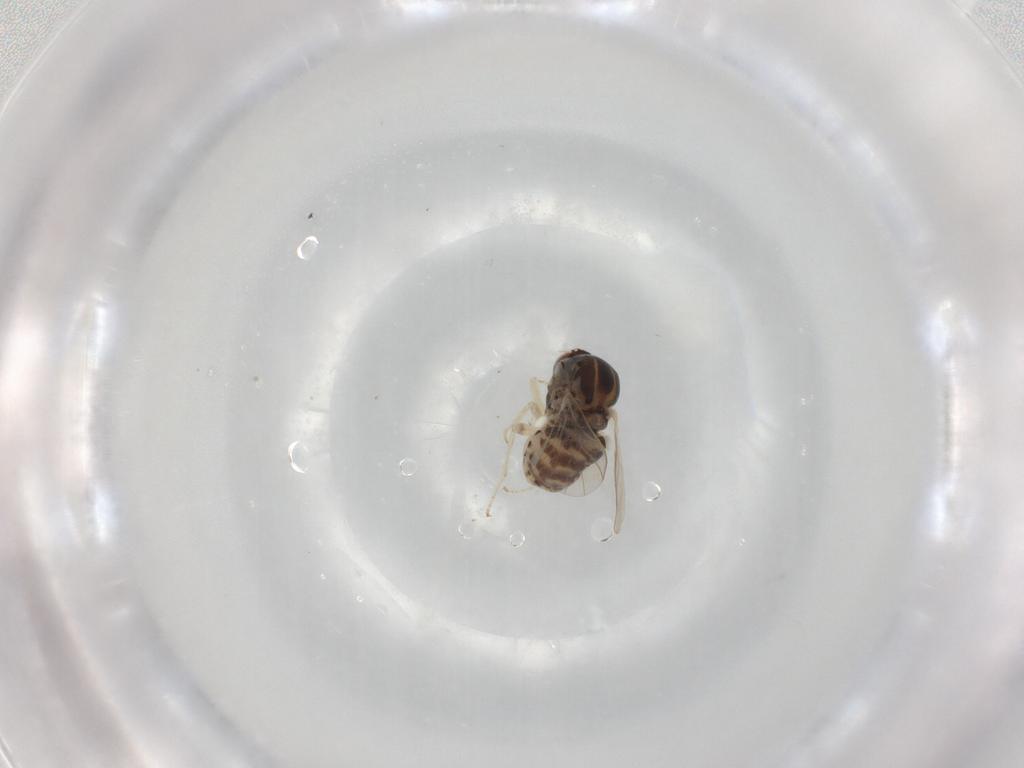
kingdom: Animalia
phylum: Arthropoda
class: Insecta
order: Diptera
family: Bombyliidae
